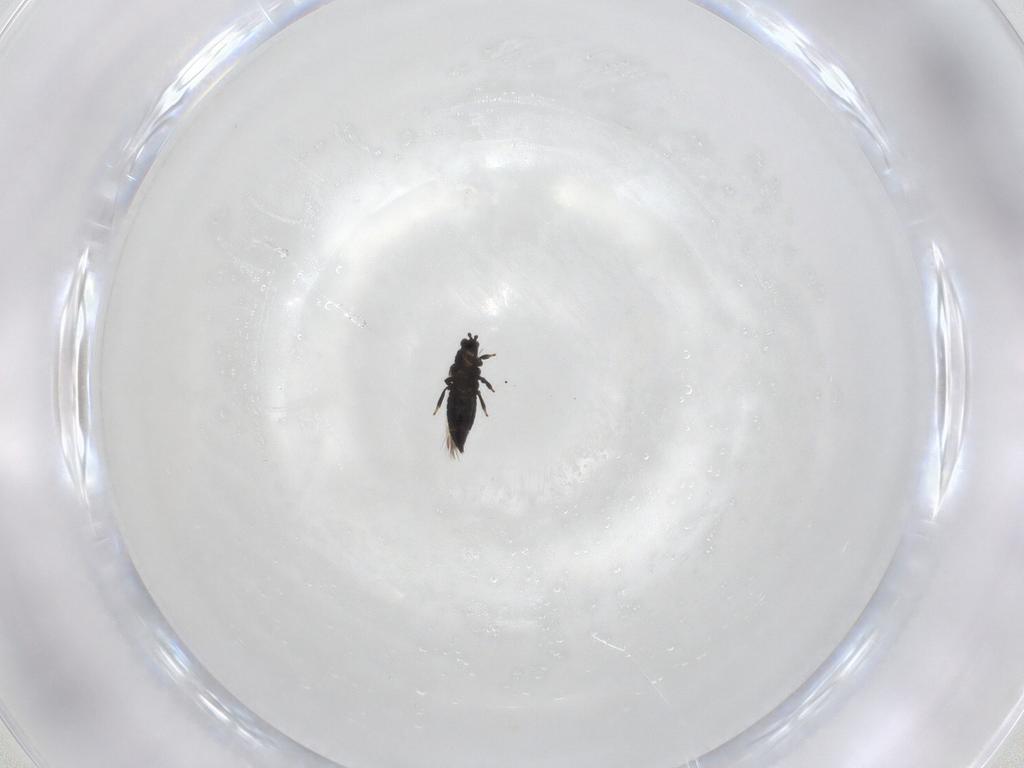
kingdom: Animalia
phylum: Arthropoda
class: Insecta
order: Thysanoptera
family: Thripidae
